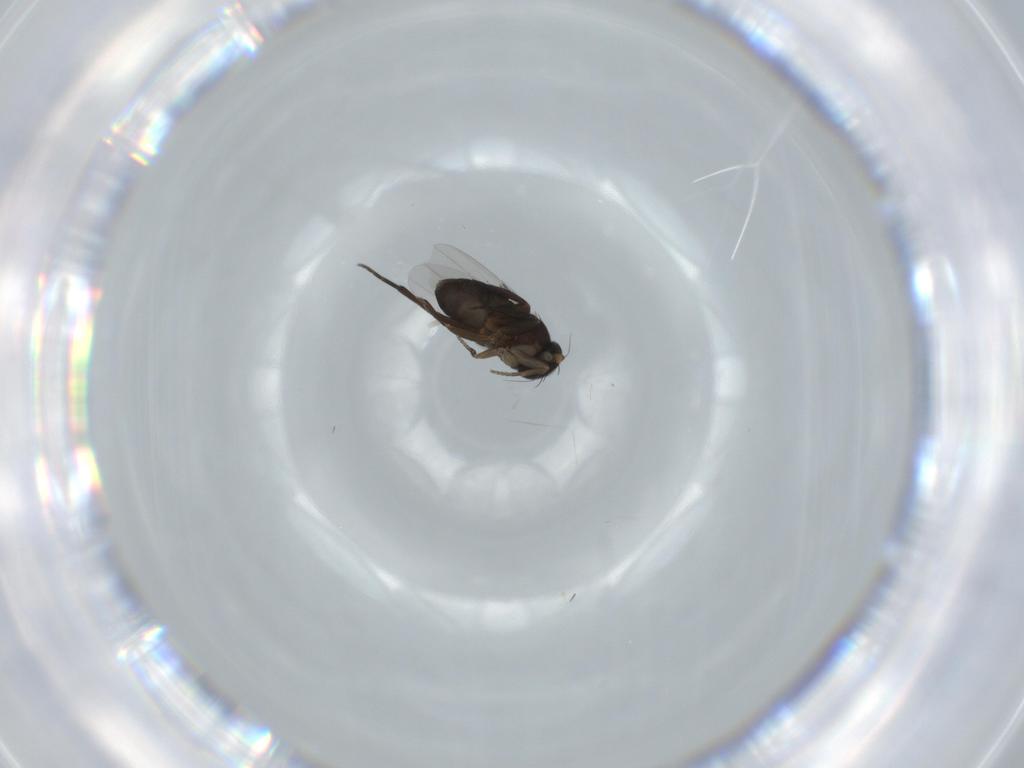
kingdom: Animalia
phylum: Arthropoda
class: Insecta
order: Diptera
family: Phoridae
